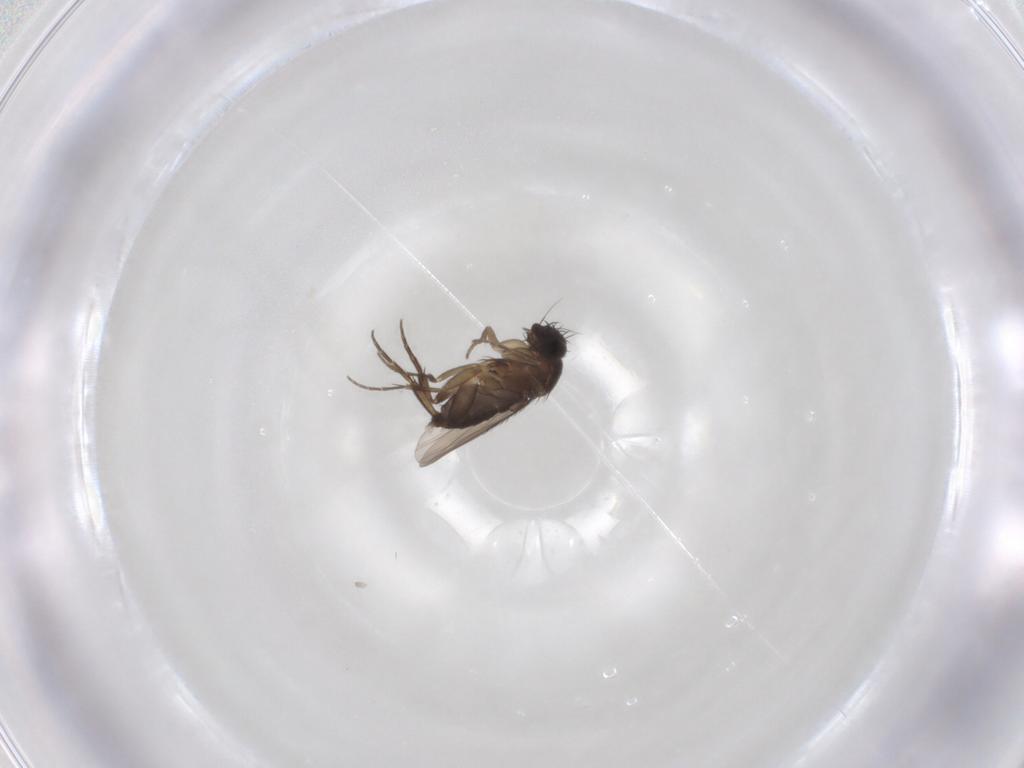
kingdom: Animalia
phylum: Arthropoda
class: Insecta
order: Diptera
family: Phoridae
